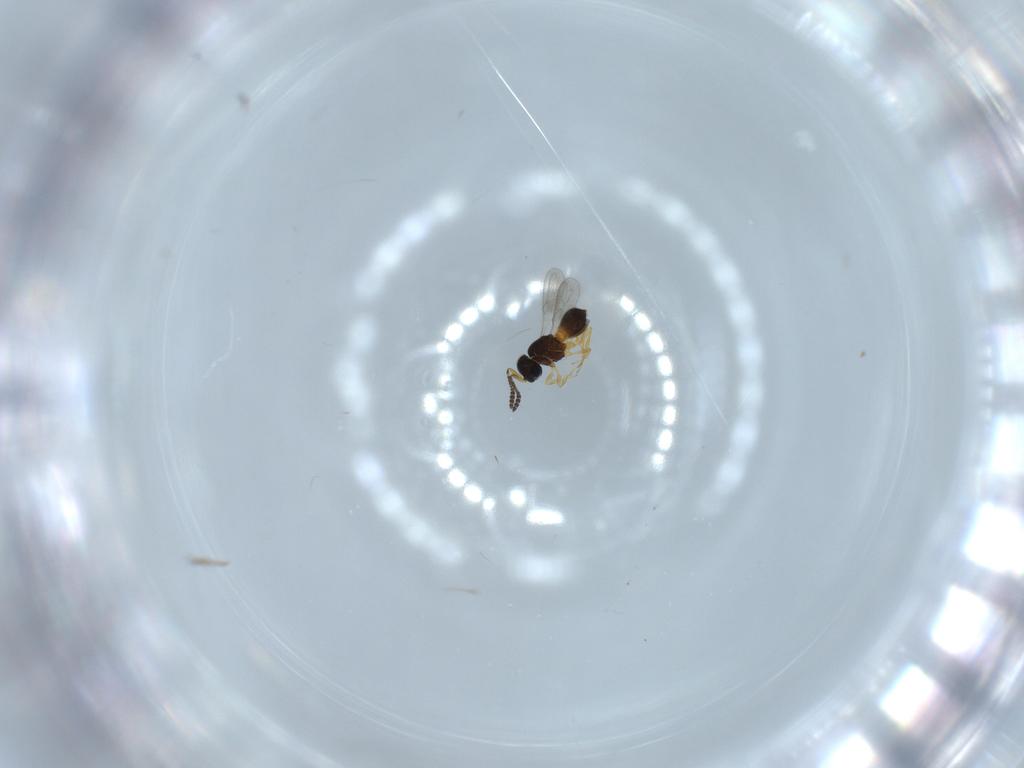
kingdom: Animalia
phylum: Arthropoda
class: Insecta
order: Hymenoptera
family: Scelionidae
